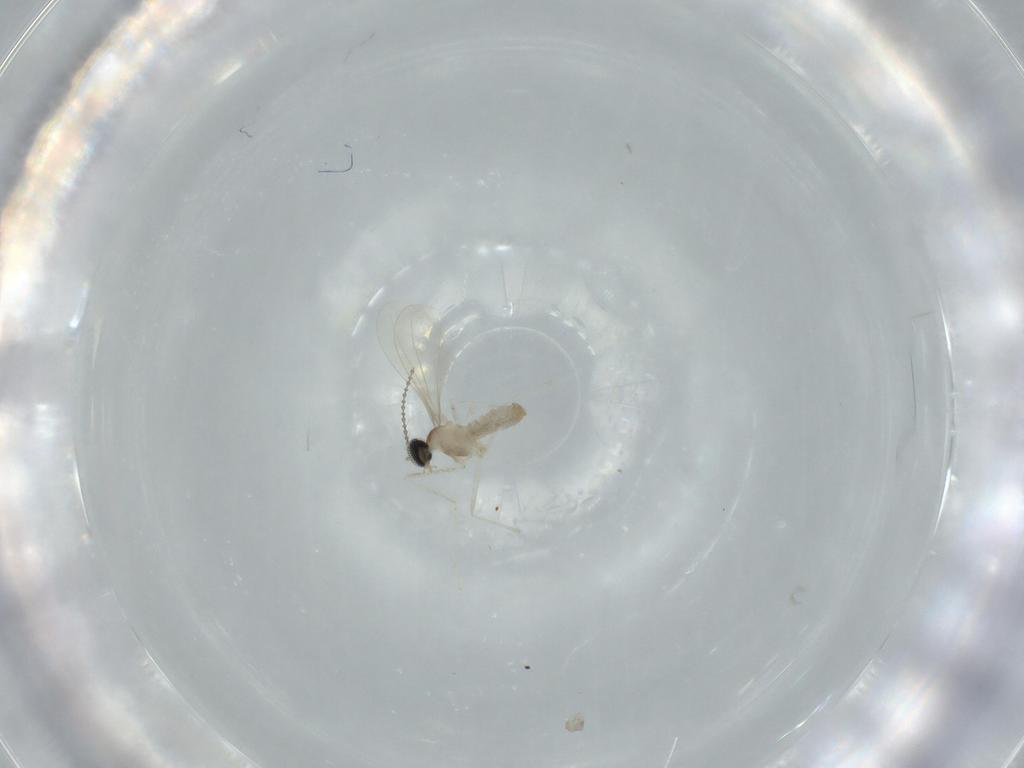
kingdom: Animalia
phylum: Arthropoda
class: Insecta
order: Diptera
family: Cecidomyiidae
